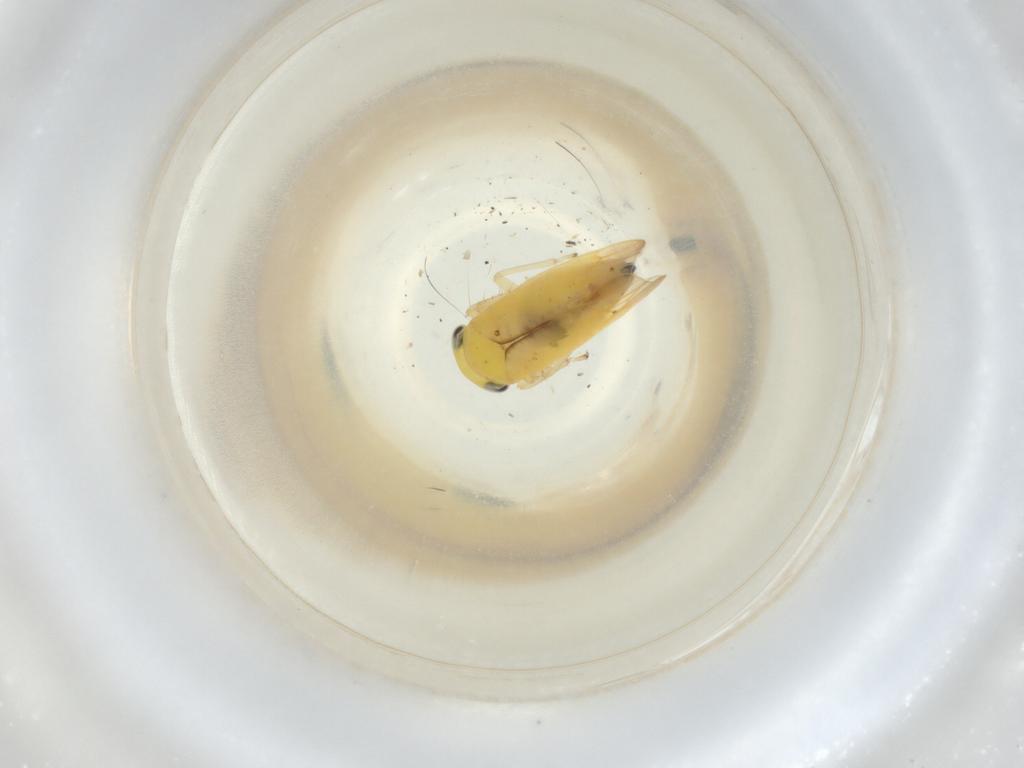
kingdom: Animalia
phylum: Arthropoda
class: Insecta
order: Hemiptera
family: Cicadellidae
